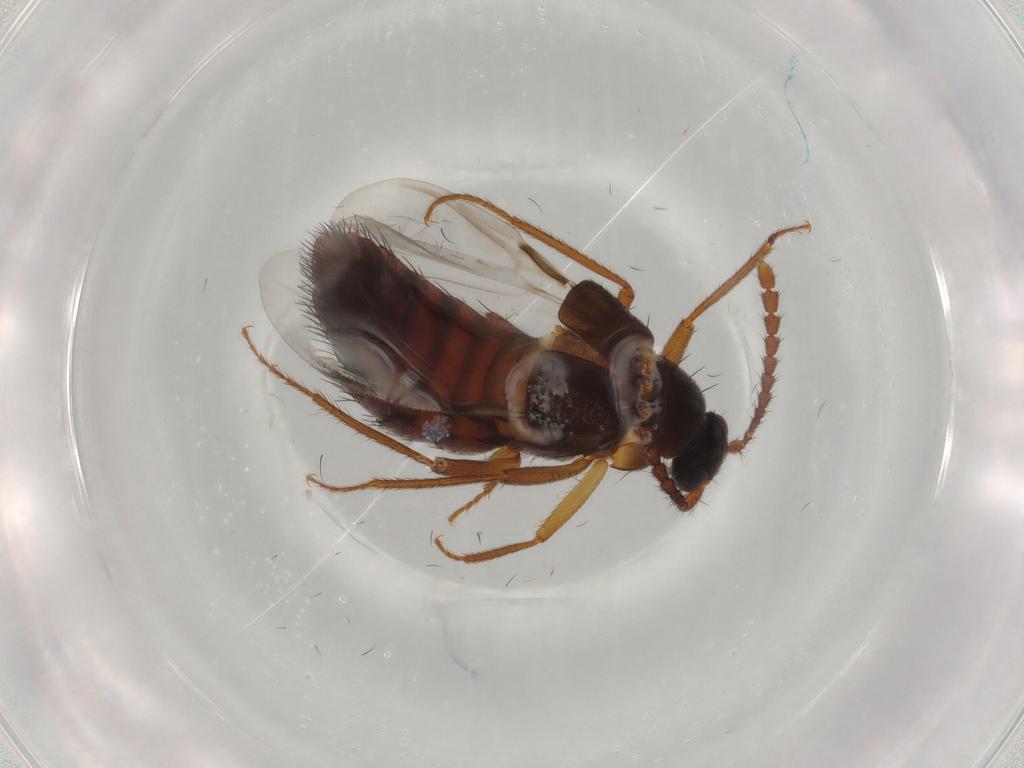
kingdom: Animalia
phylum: Arthropoda
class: Insecta
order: Coleoptera
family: Staphylinidae
